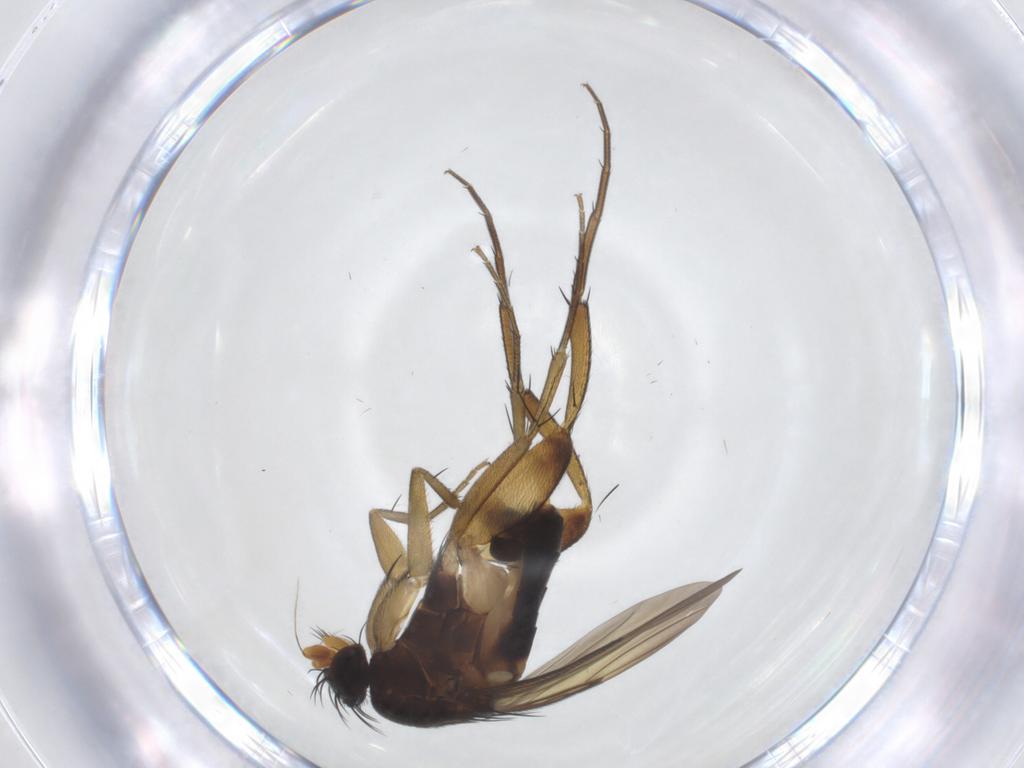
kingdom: Animalia
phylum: Arthropoda
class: Insecta
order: Diptera
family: Phoridae
